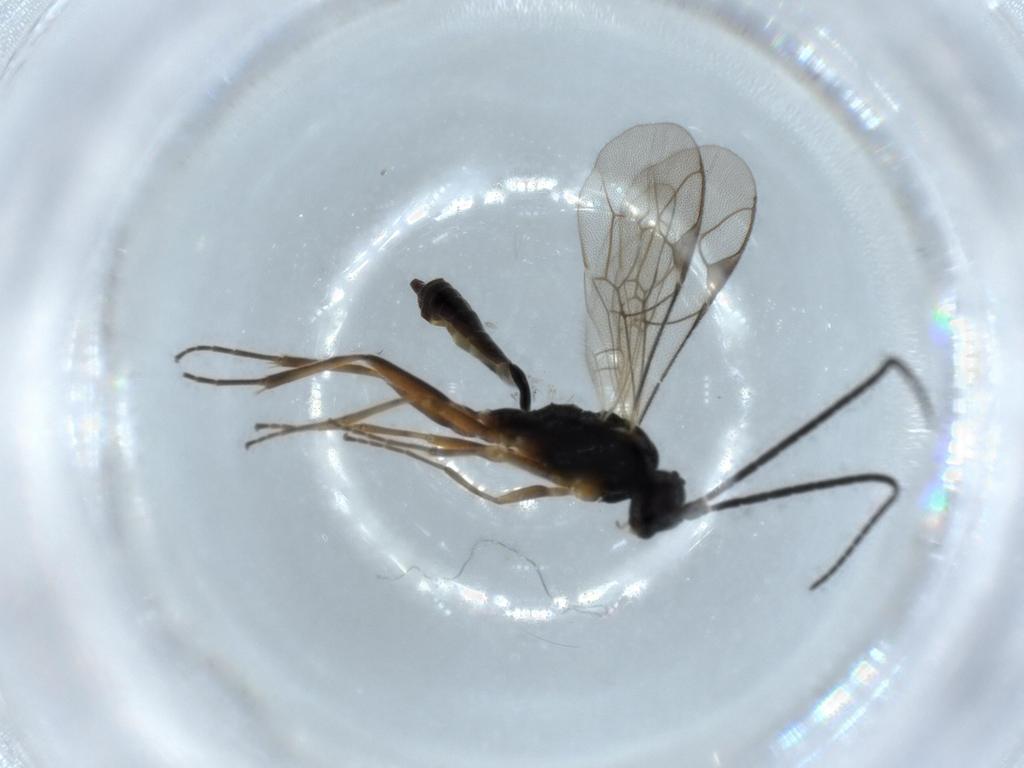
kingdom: Animalia
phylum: Arthropoda
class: Insecta
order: Hymenoptera
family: Ichneumonidae
